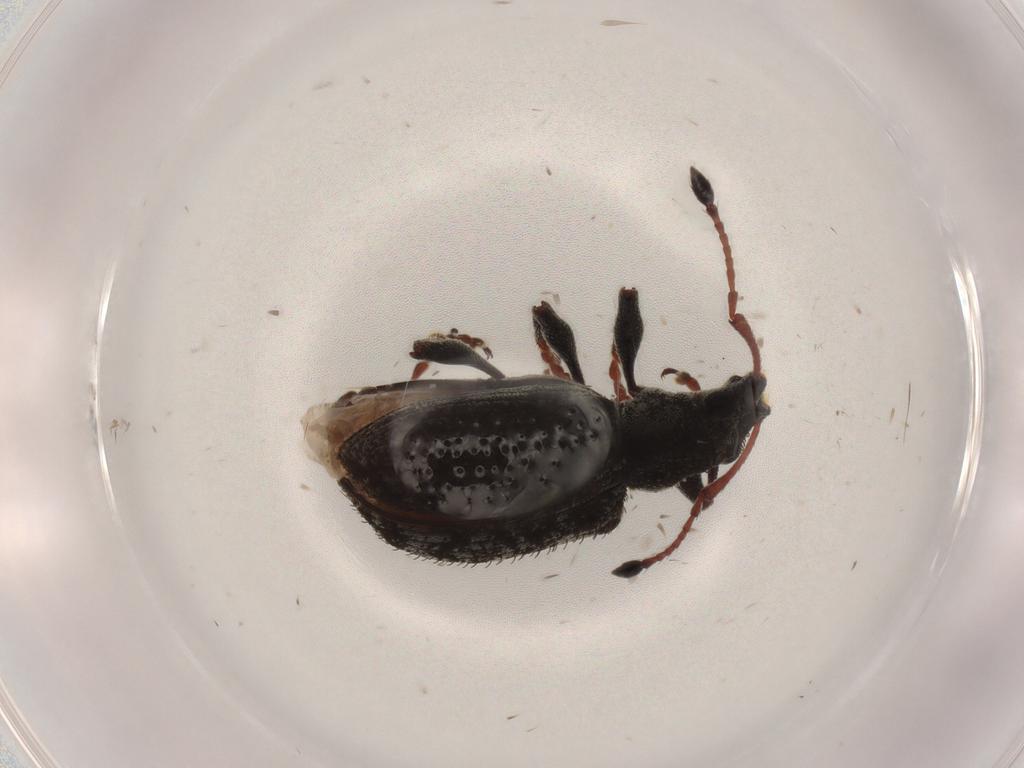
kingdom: Animalia
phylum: Arthropoda
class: Insecta
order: Coleoptera
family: Curculionidae
